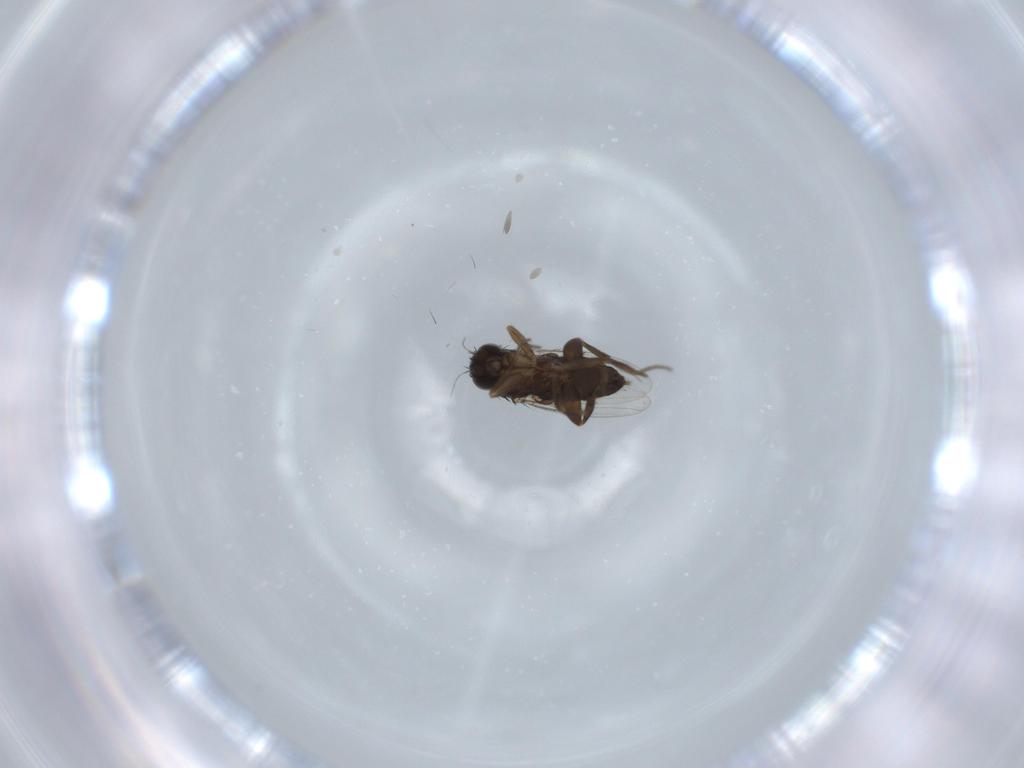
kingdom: Animalia
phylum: Arthropoda
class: Insecta
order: Diptera
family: Phoridae
